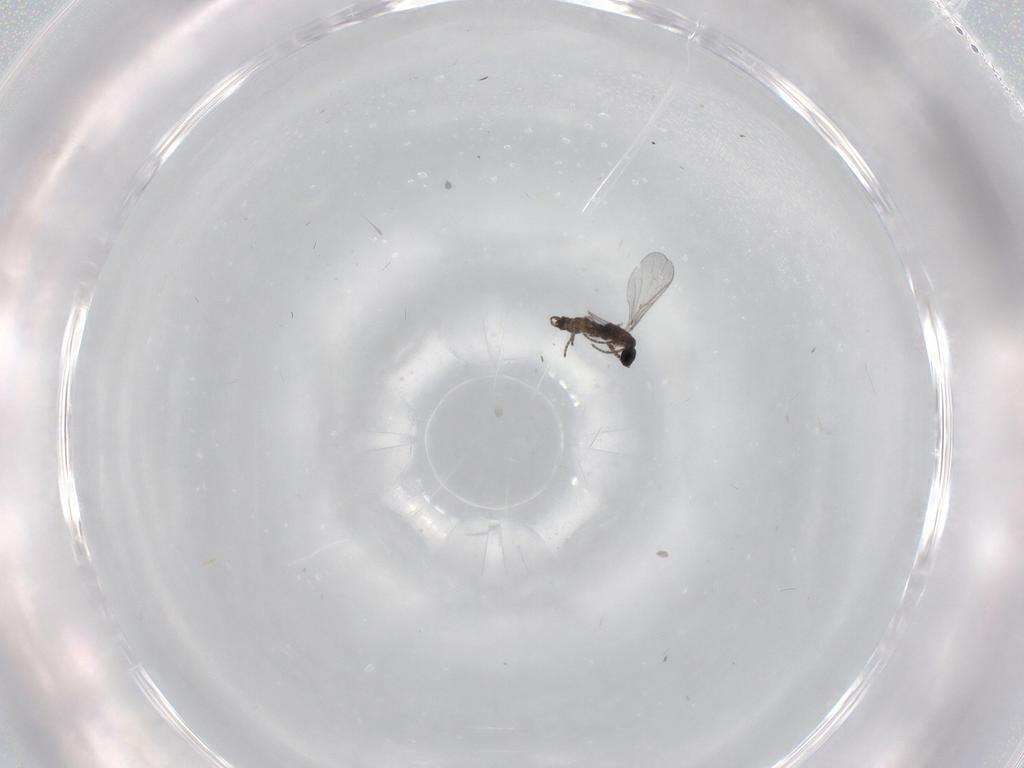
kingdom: Animalia
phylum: Arthropoda
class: Insecta
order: Diptera
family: Sciaridae
